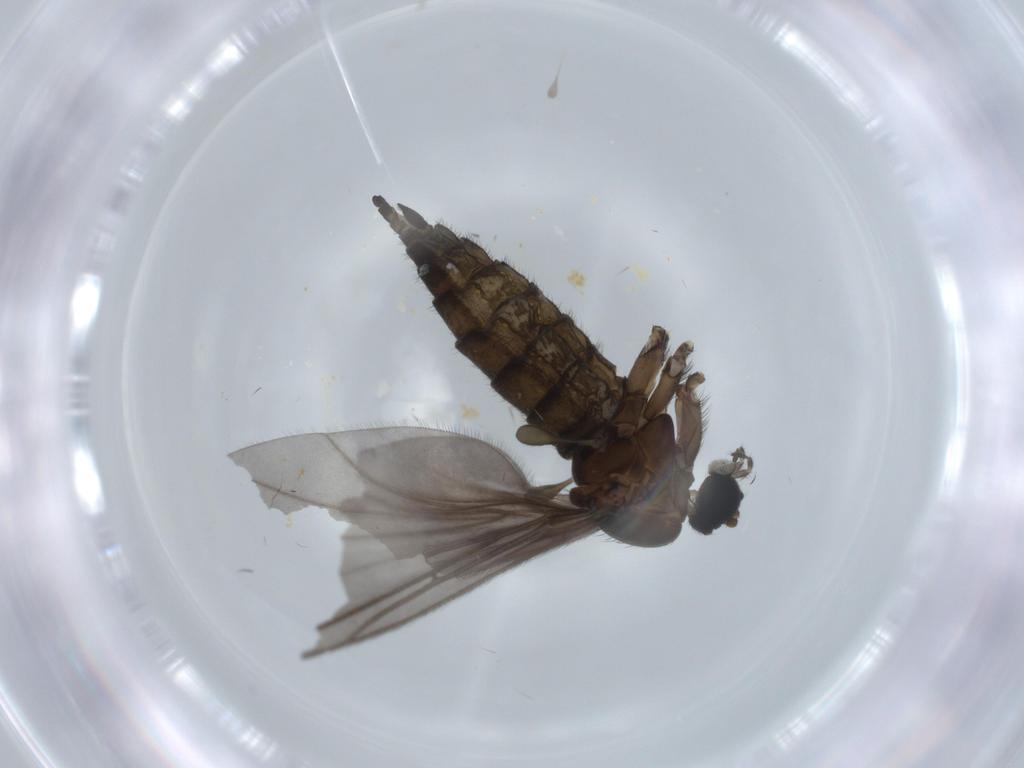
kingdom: Animalia
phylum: Arthropoda
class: Insecta
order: Diptera
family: Sciaridae
